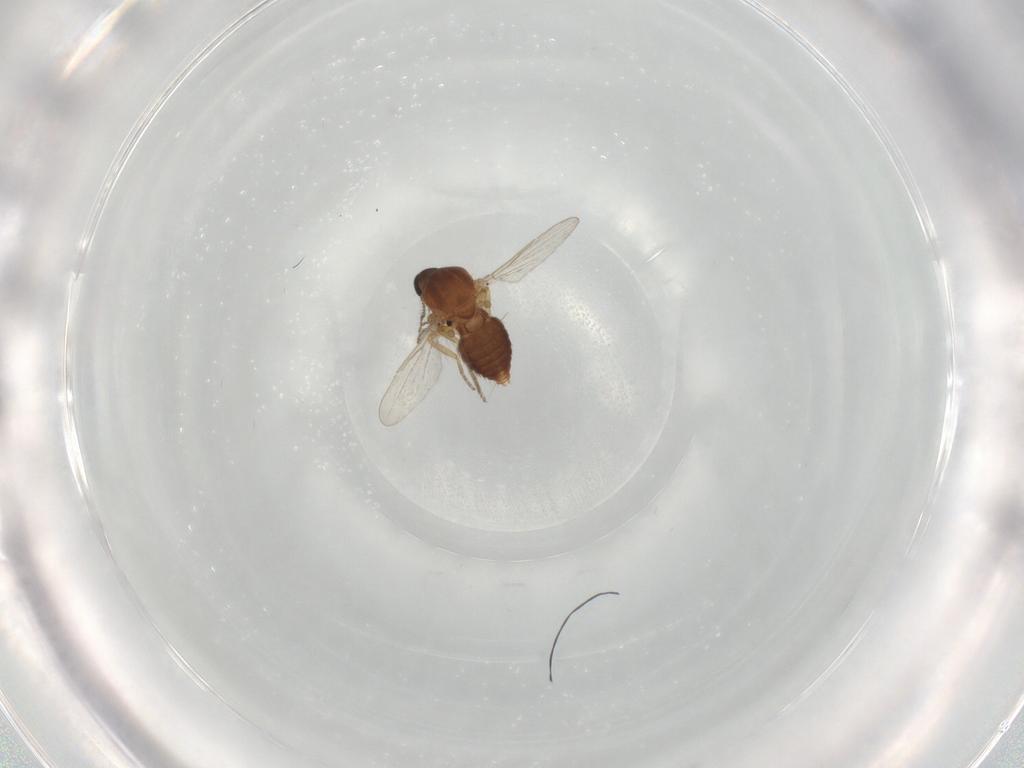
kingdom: Animalia
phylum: Arthropoda
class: Insecta
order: Diptera
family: Ceratopogonidae
